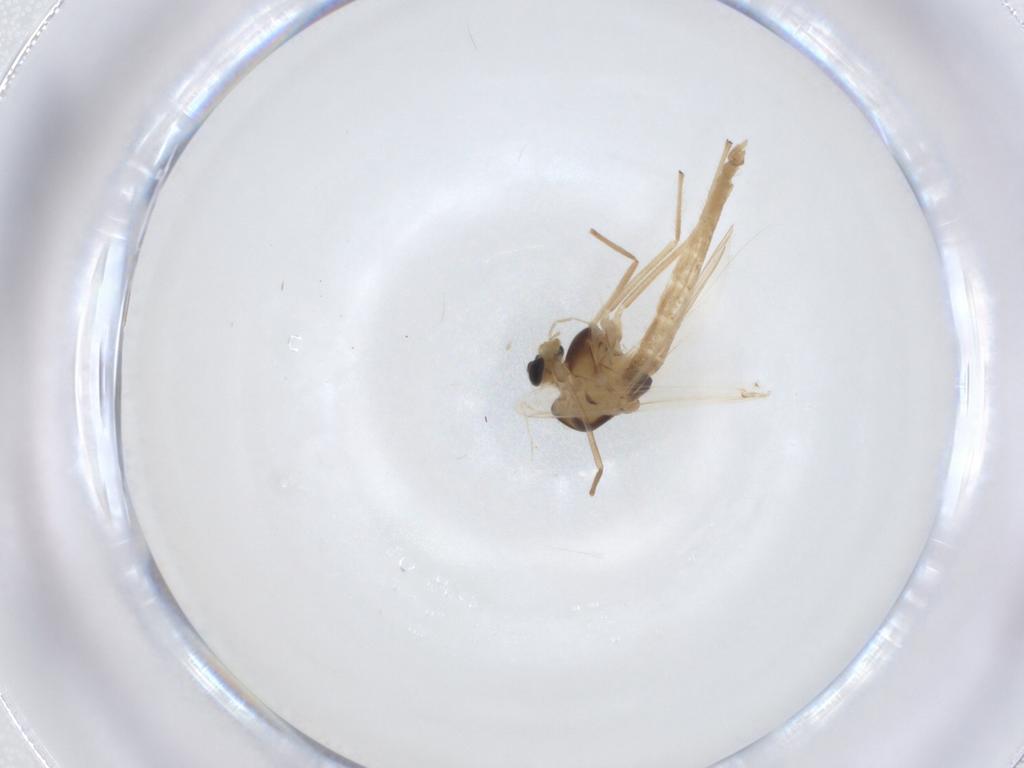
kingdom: Animalia
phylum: Arthropoda
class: Insecta
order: Diptera
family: Chironomidae
